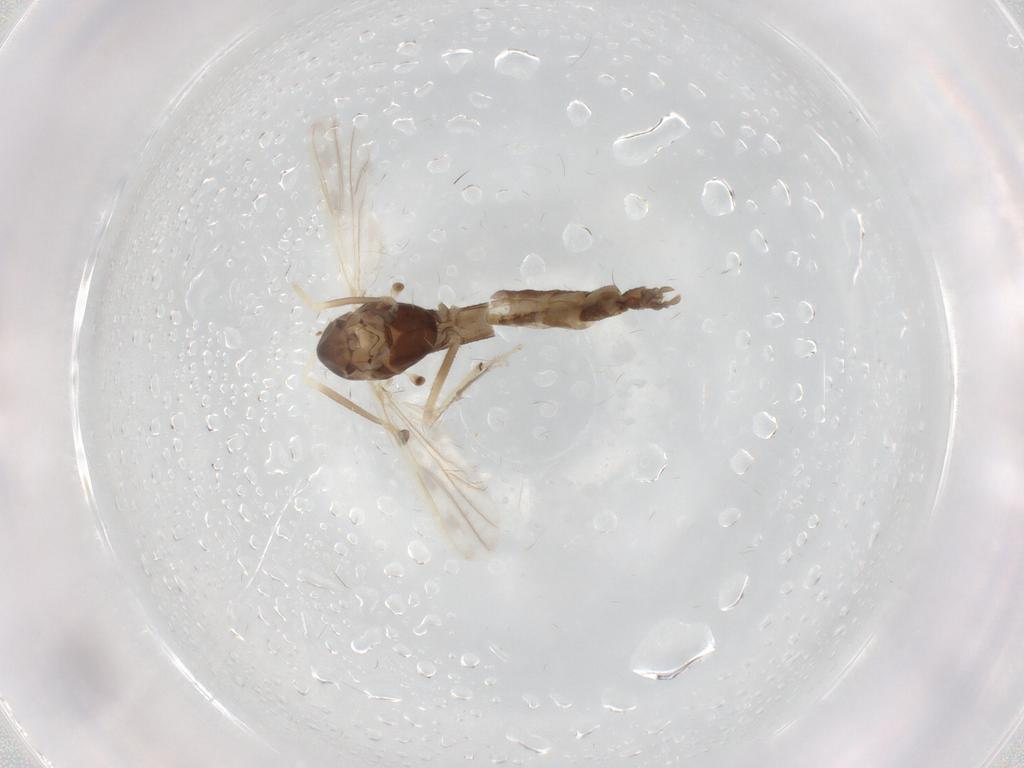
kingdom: Animalia
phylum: Arthropoda
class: Insecta
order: Diptera
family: Chironomidae
